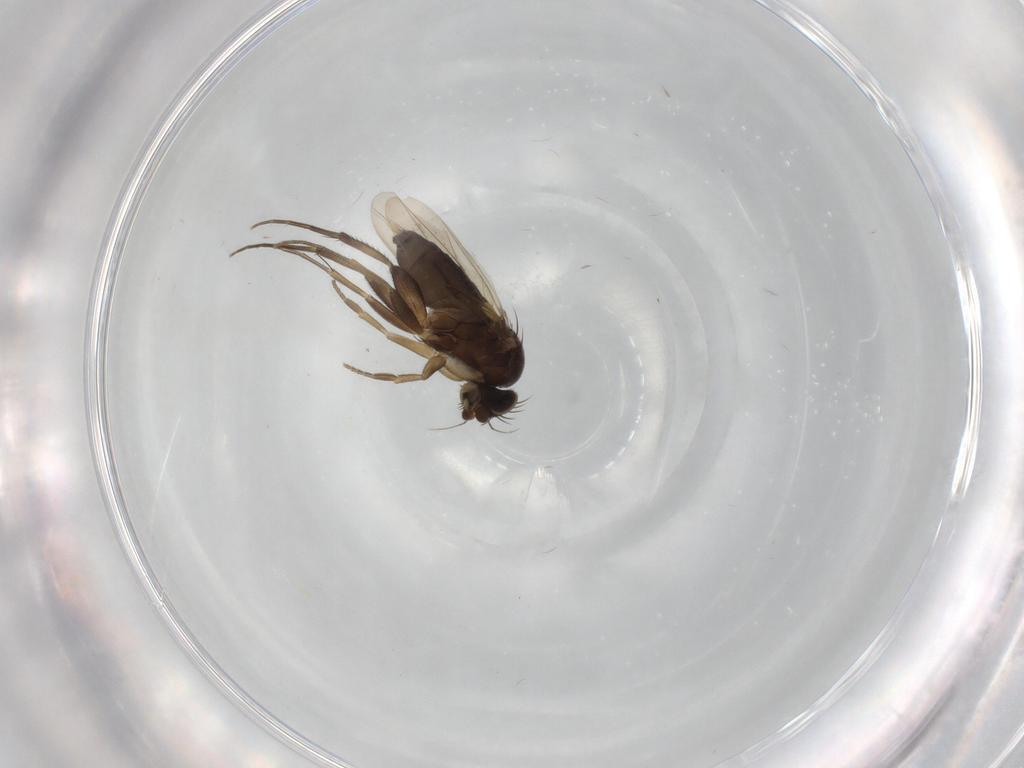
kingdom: Animalia
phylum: Arthropoda
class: Insecta
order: Diptera
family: Phoridae
